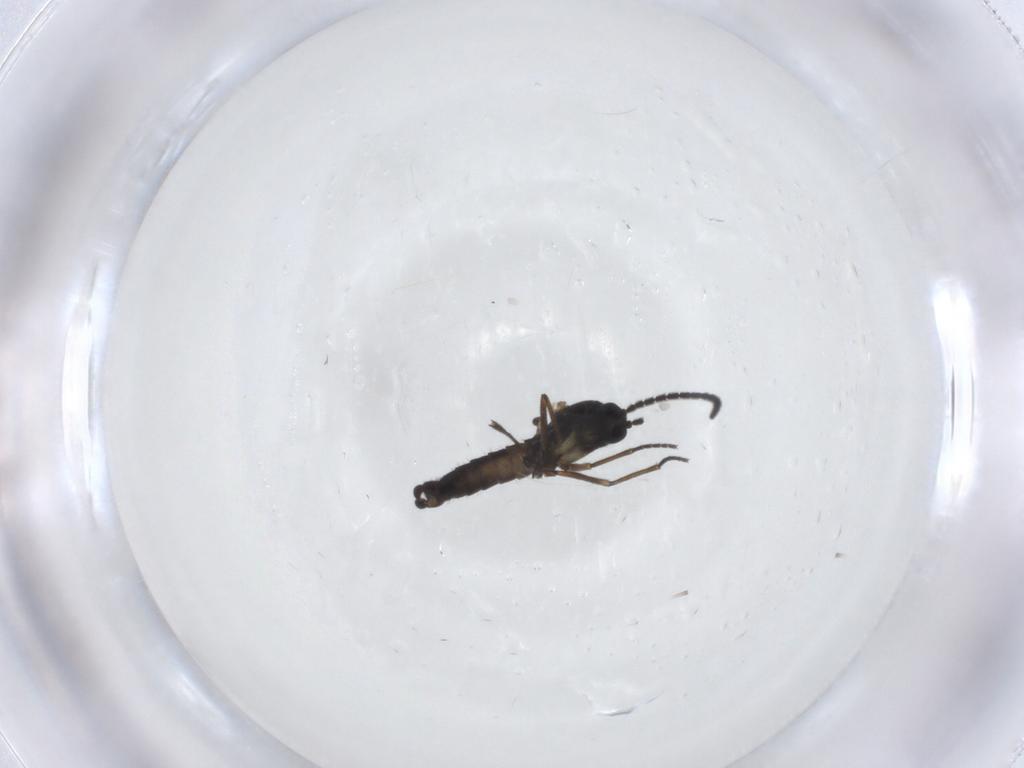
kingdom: Animalia
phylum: Arthropoda
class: Insecta
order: Diptera
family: Sciaridae
